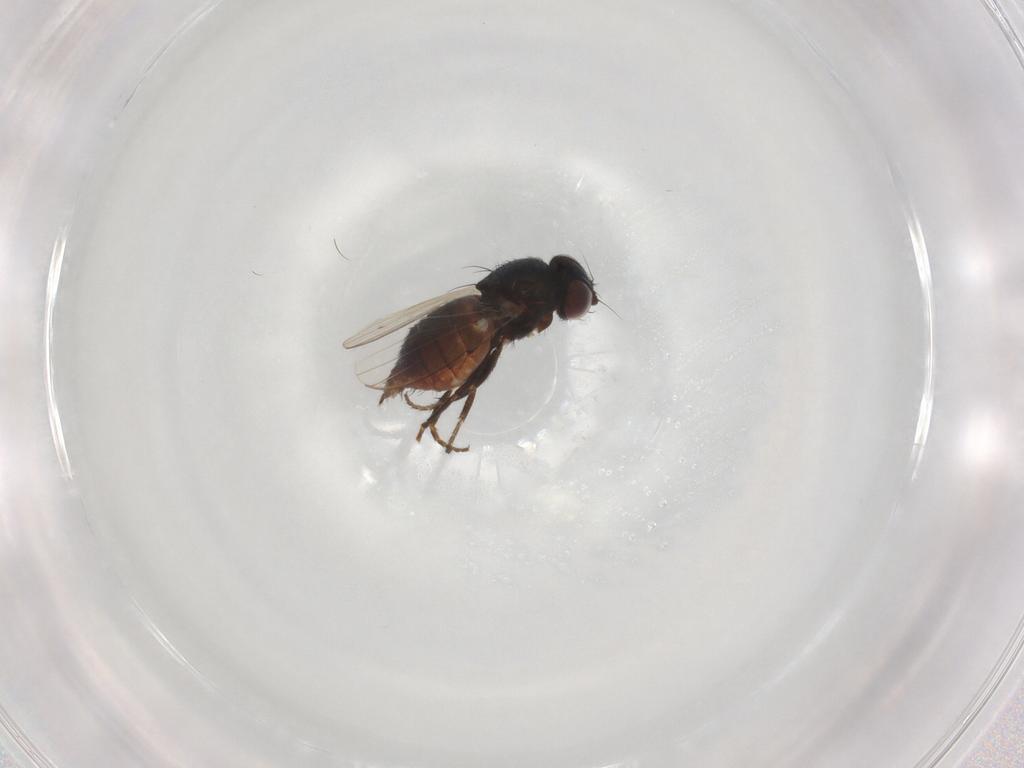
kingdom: Animalia
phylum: Arthropoda
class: Insecta
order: Diptera
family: Milichiidae
